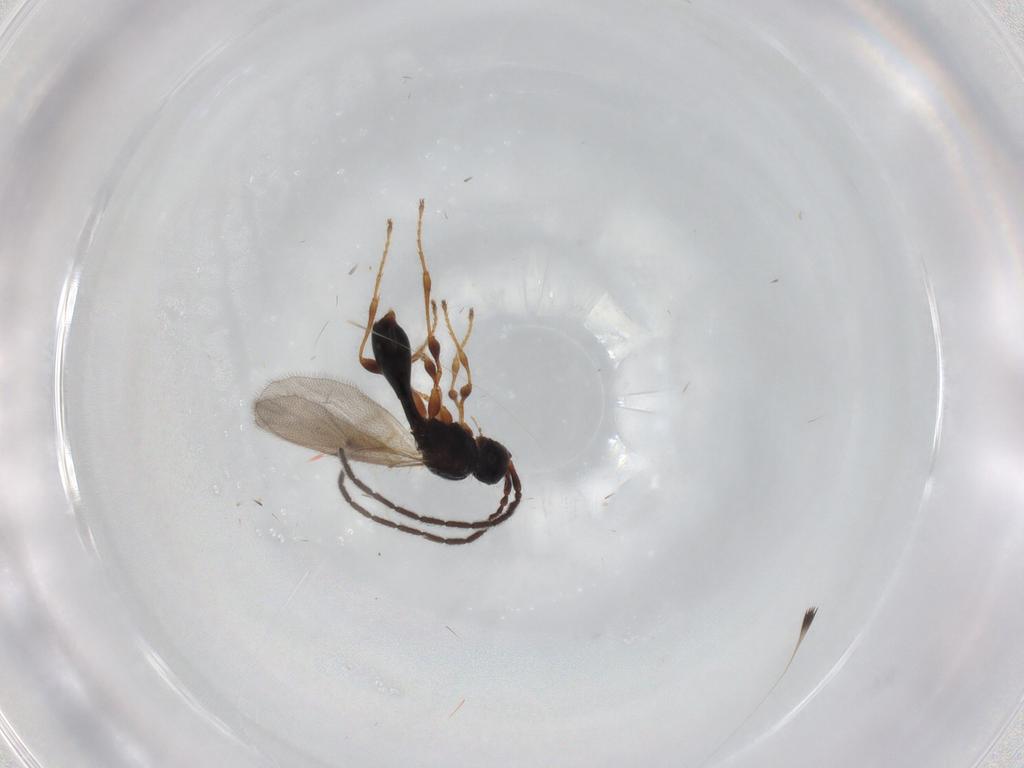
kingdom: Animalia
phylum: Arthropoda
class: Insecta
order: Hymenoptera
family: Diapriidae
